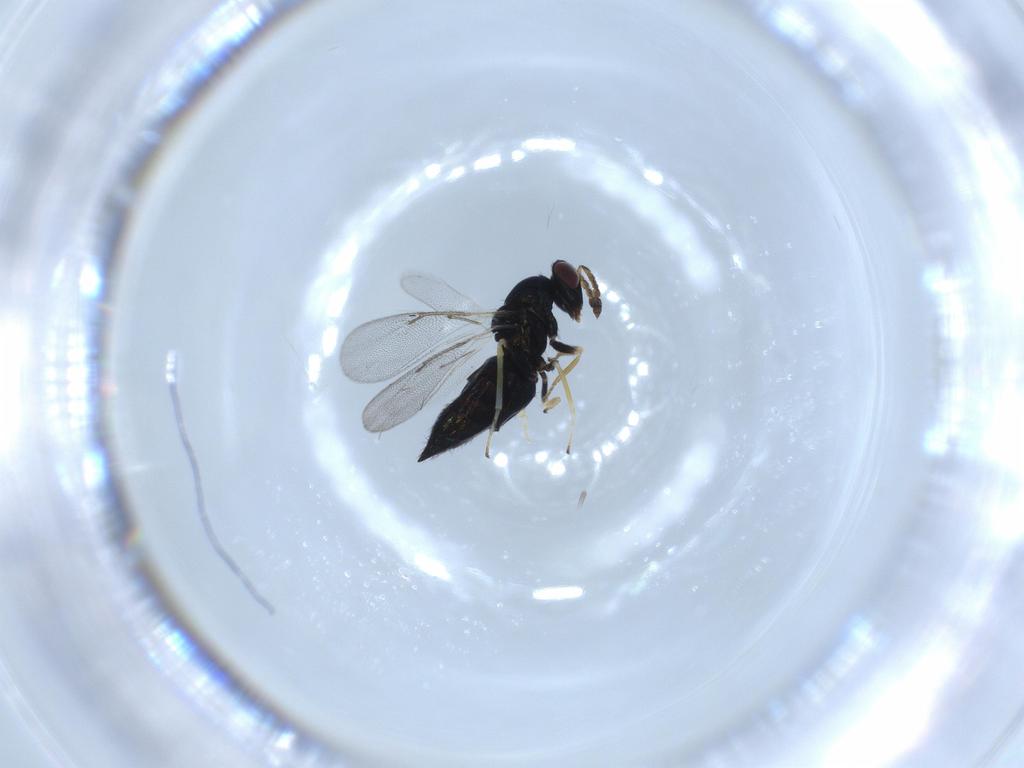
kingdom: Animalia
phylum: Arthropoda
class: Insecta
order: Hymenoptera
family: Eulophidae
